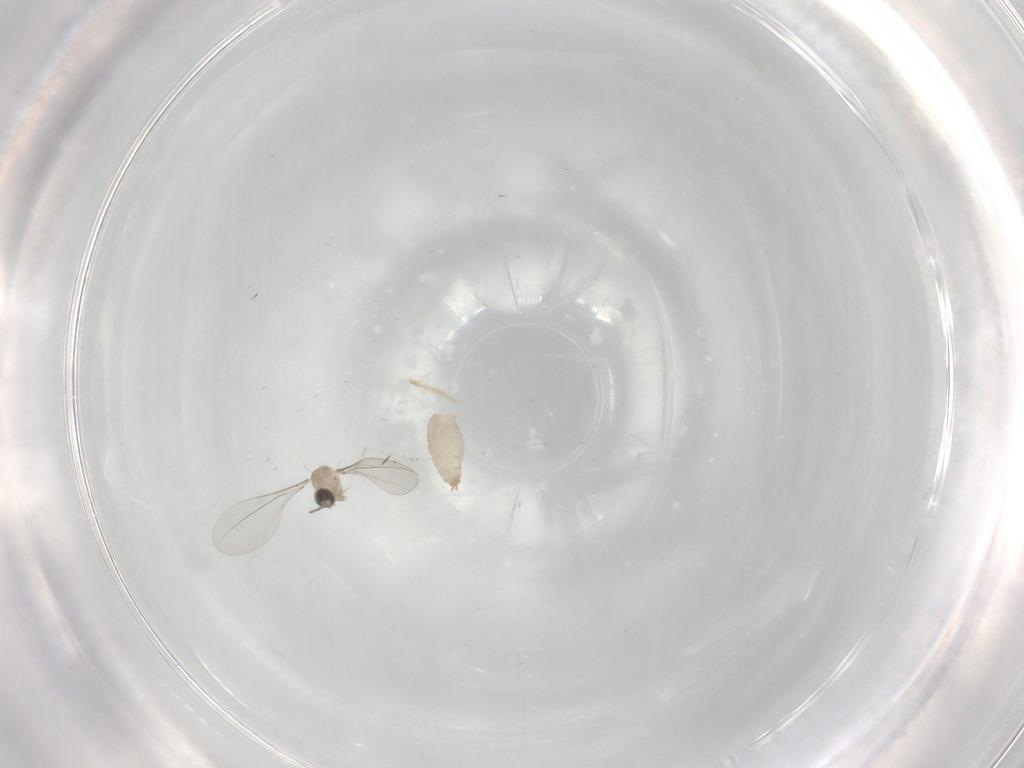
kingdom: Animalia
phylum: Arthropoda
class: Insecta
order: Diptera
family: Cecidomyiidae
